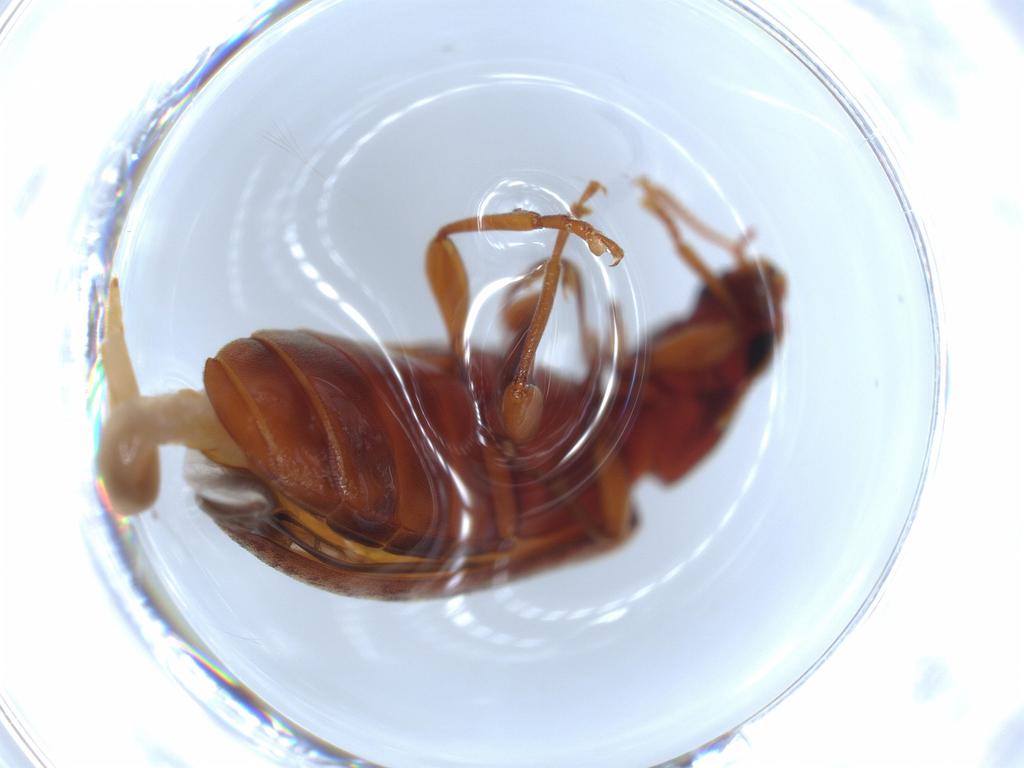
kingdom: Animalia
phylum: Arthropoda
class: Insecta
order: Coleoptera
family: Mycteridae
